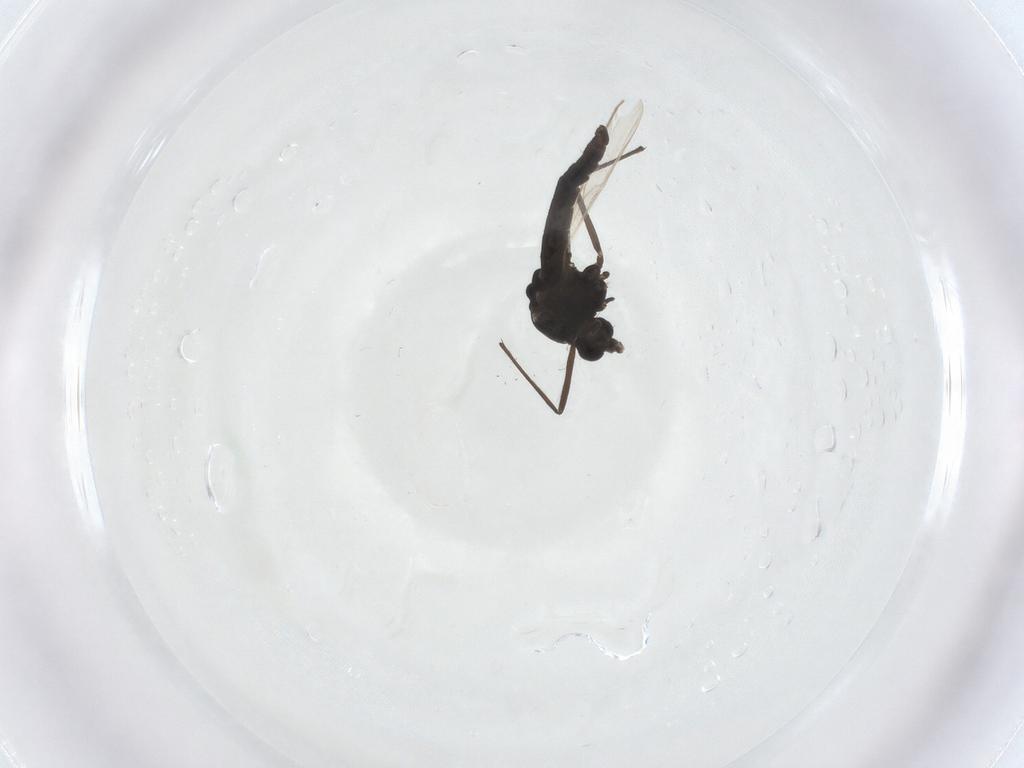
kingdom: Animalia
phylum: Arthropoda
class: Insecta
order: Diptera
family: Chironomidae
